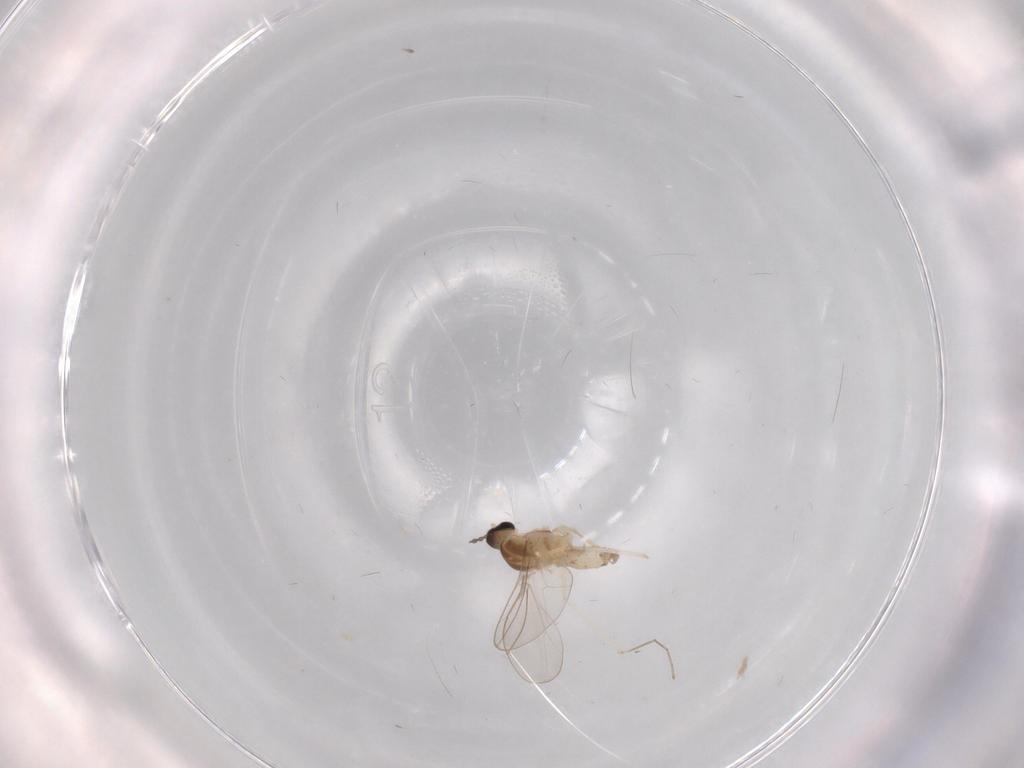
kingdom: Animalia
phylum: Arthropoda
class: Insecta
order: Diptera
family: Cecidomyiidae
